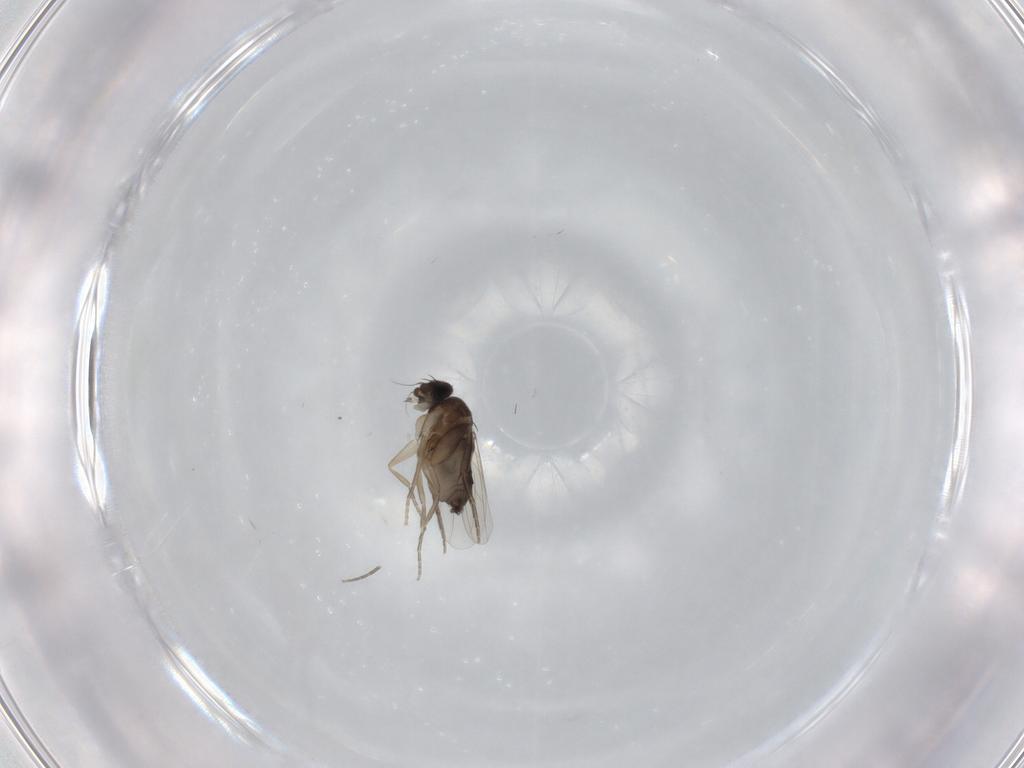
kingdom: Animalia
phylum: Arthropoda
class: Insecta
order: Diptera
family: Phoridae
